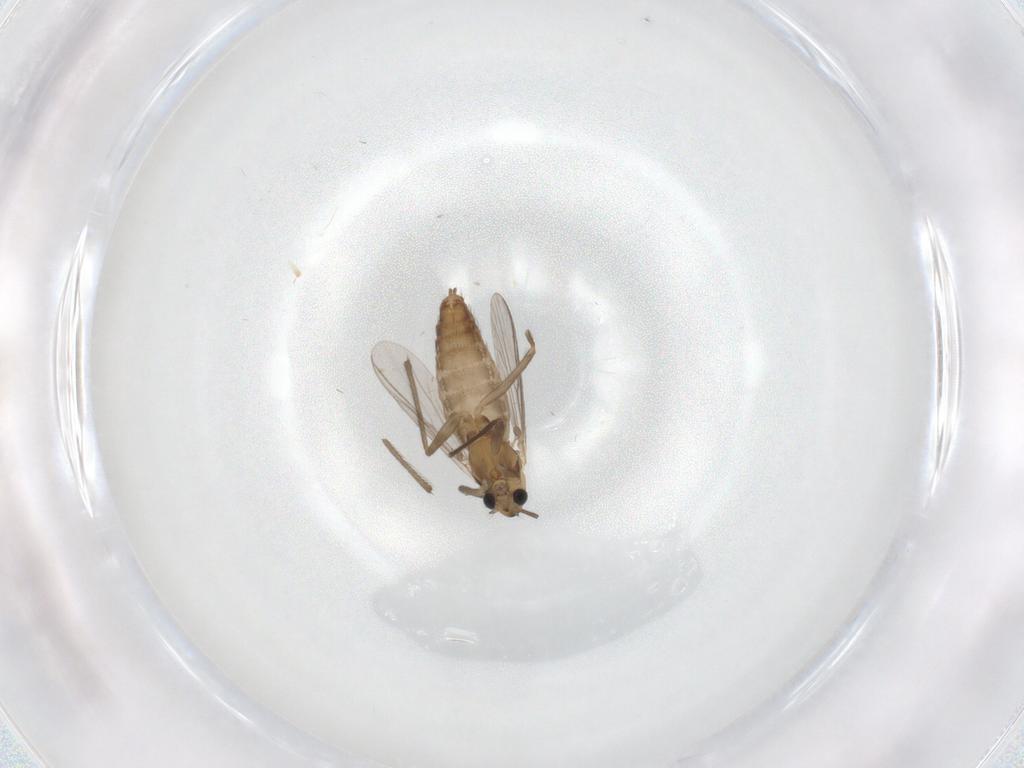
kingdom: Animalia
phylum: Arthropoda
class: Insecta
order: Diptera
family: Chironomidae
